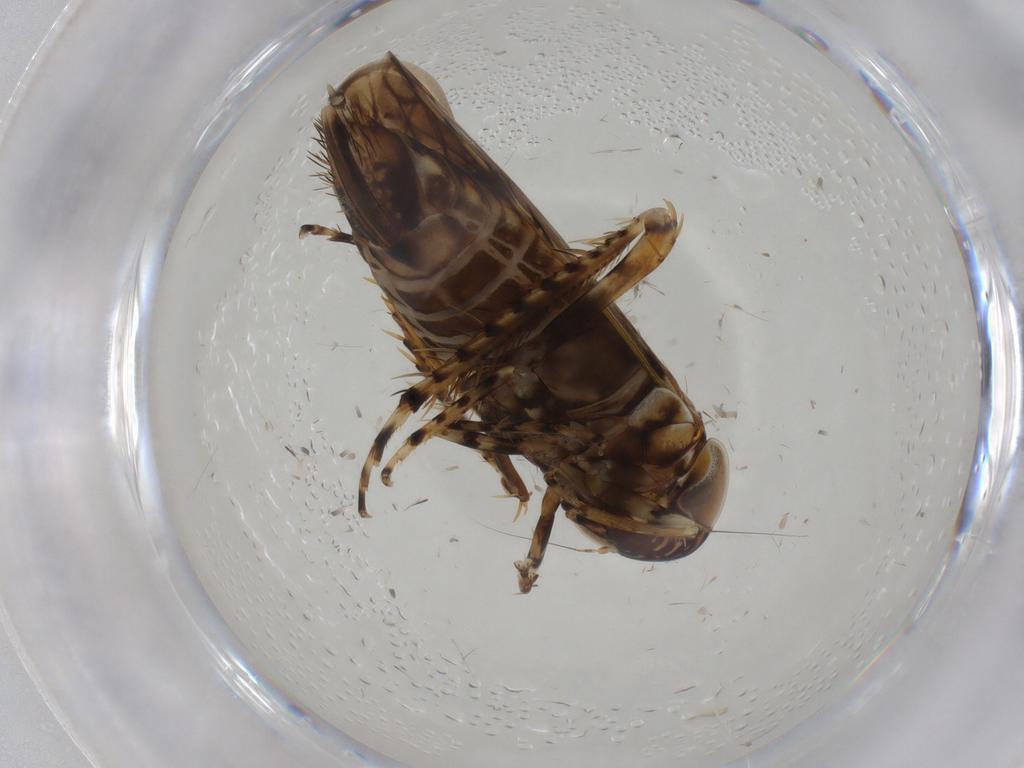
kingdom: Animalia
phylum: Arthropoda
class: Insecta
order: Hemiptera
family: Cicadellidae
